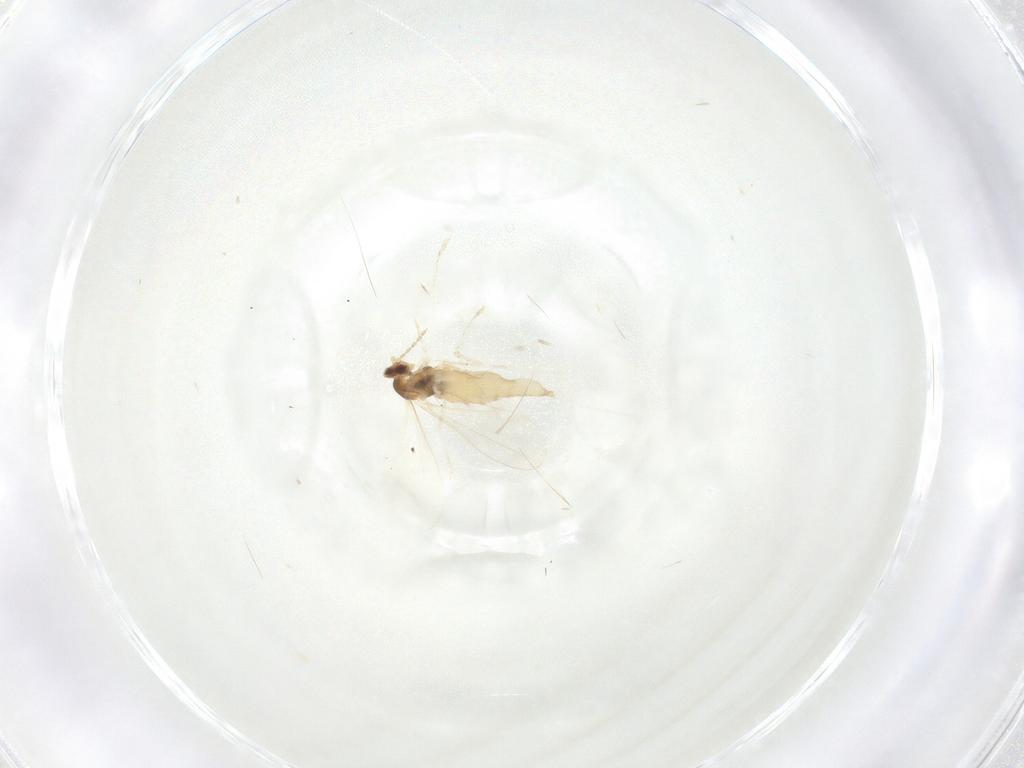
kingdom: Animalia
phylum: Arthropoda
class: Insecta
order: Diptera
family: Cecidomyiidae
